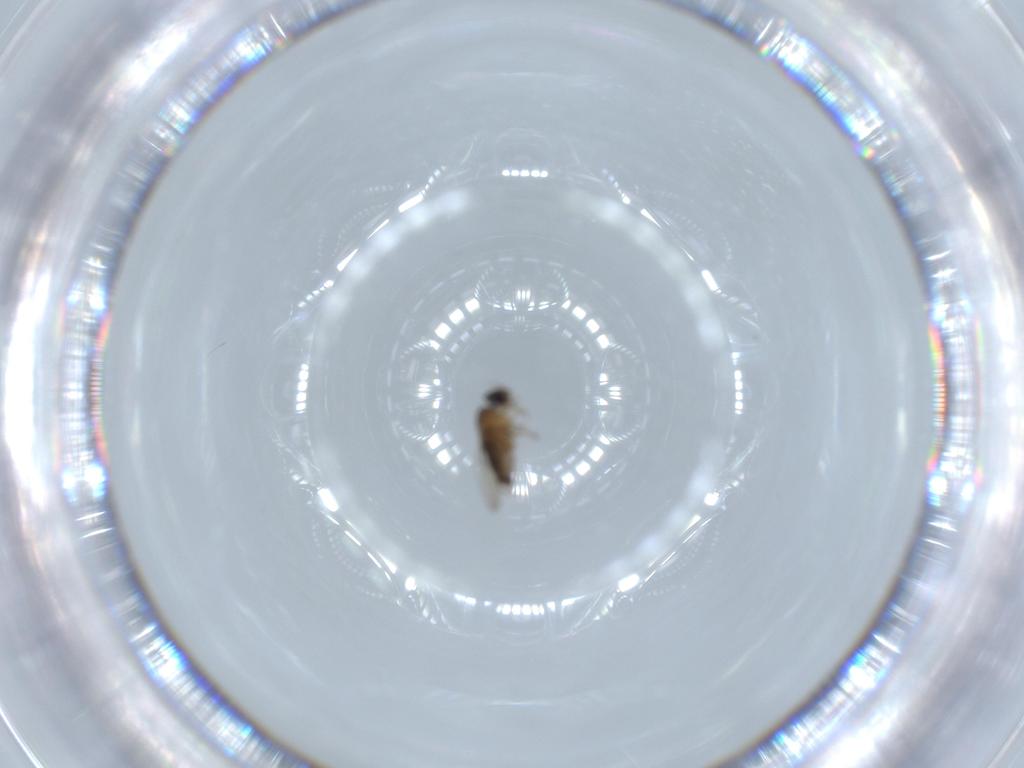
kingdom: Animalia
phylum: Arthropoda
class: Insecta
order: Diptera
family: Phoridae
